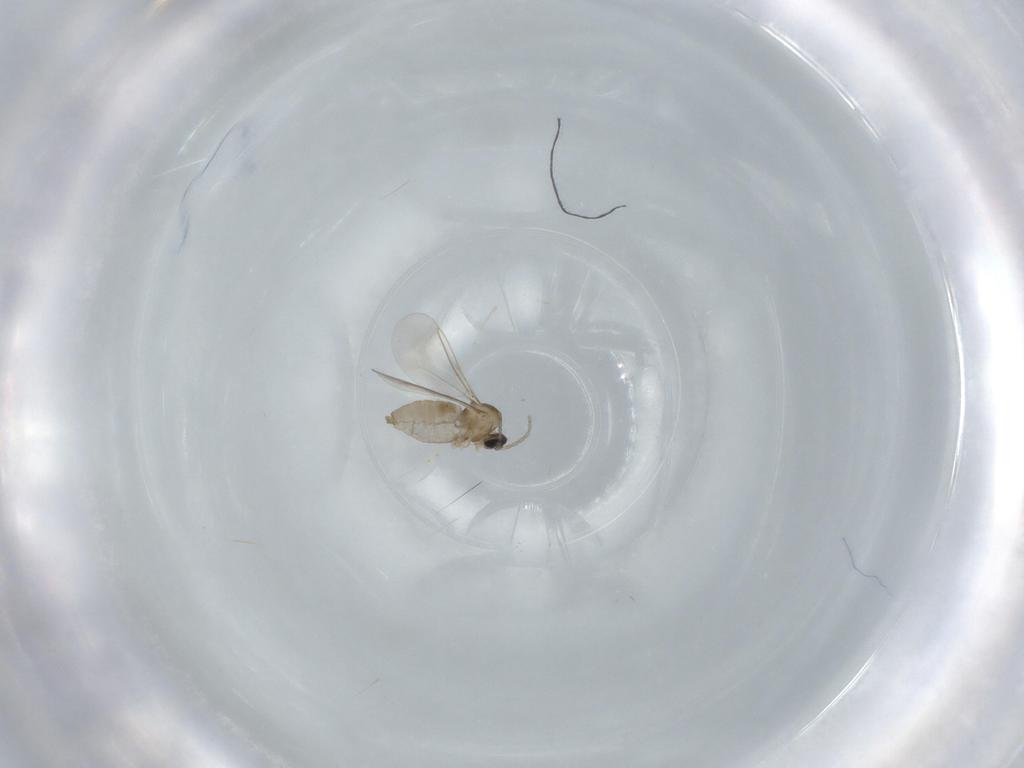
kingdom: Animalia
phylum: Arthropoda
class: Insecta
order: Diptera
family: Cecidomyiidae
